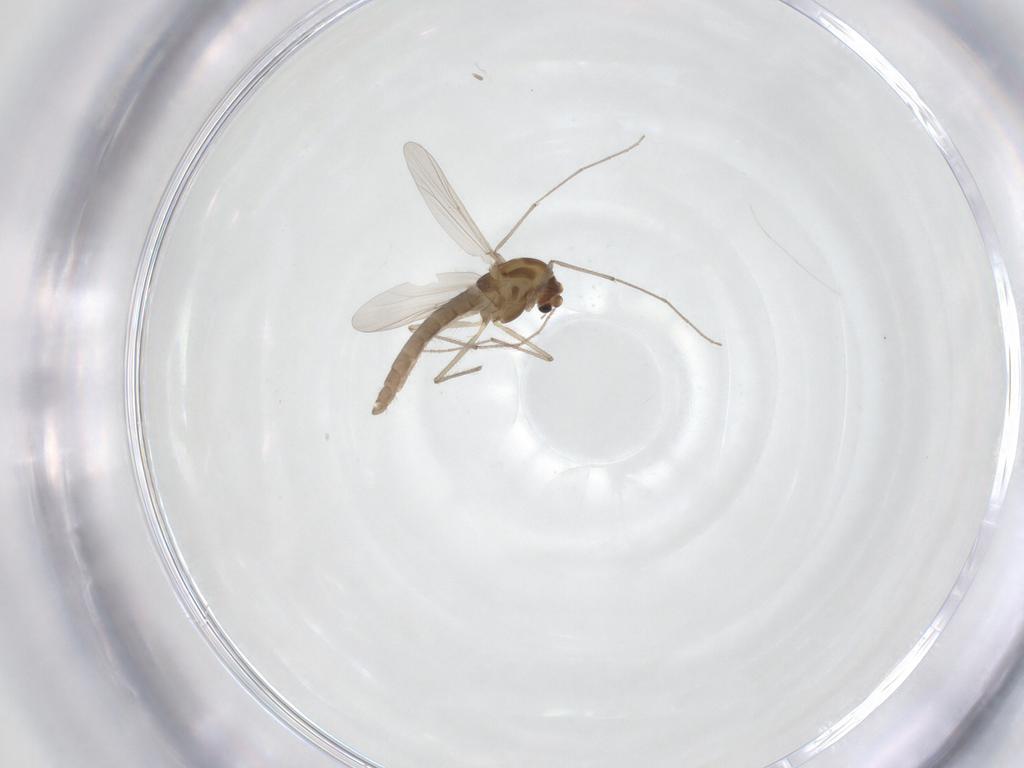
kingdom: Animalia
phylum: Arthropoda
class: Insecta
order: Diptera
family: Chironomidae
